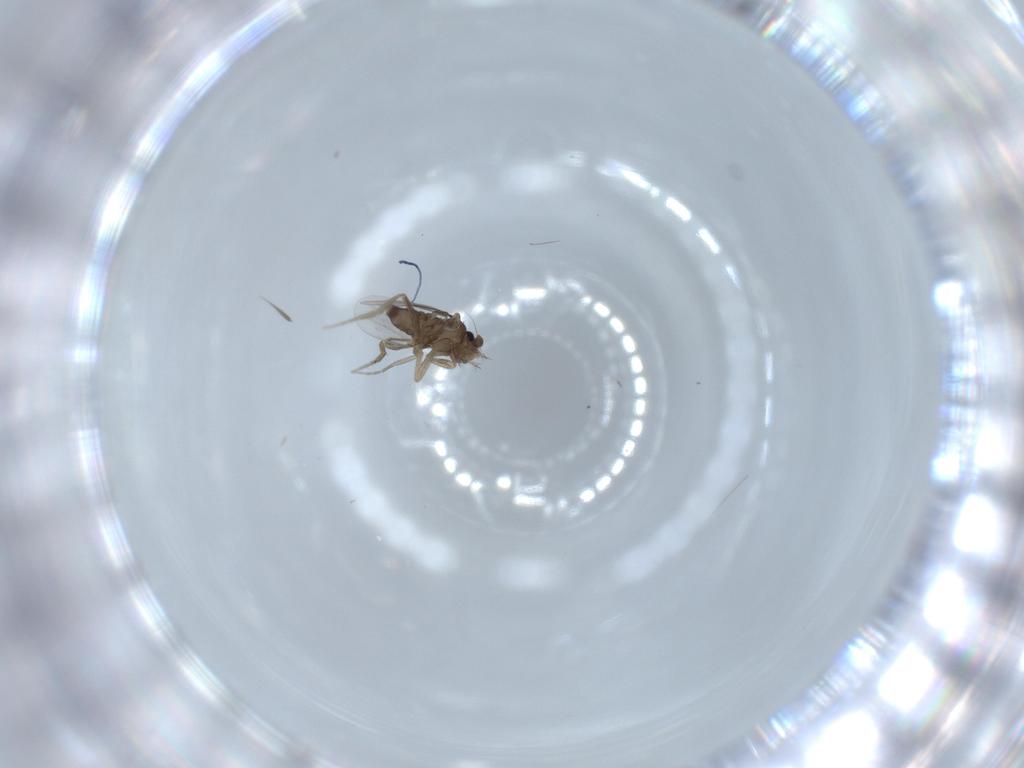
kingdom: Animalia
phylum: Arthropoda
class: Insecta
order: Diptera
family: Phoridae
